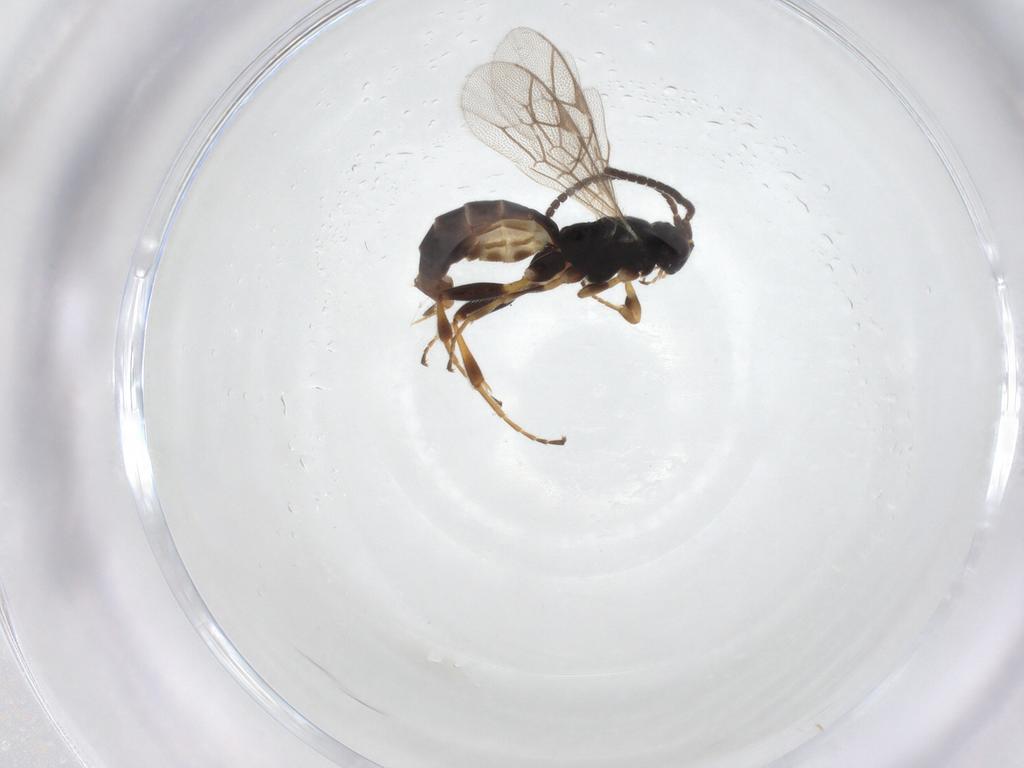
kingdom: Animalia
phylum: Arthropoda
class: Insecta
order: Hymenoptera
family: Ichneumonidae
